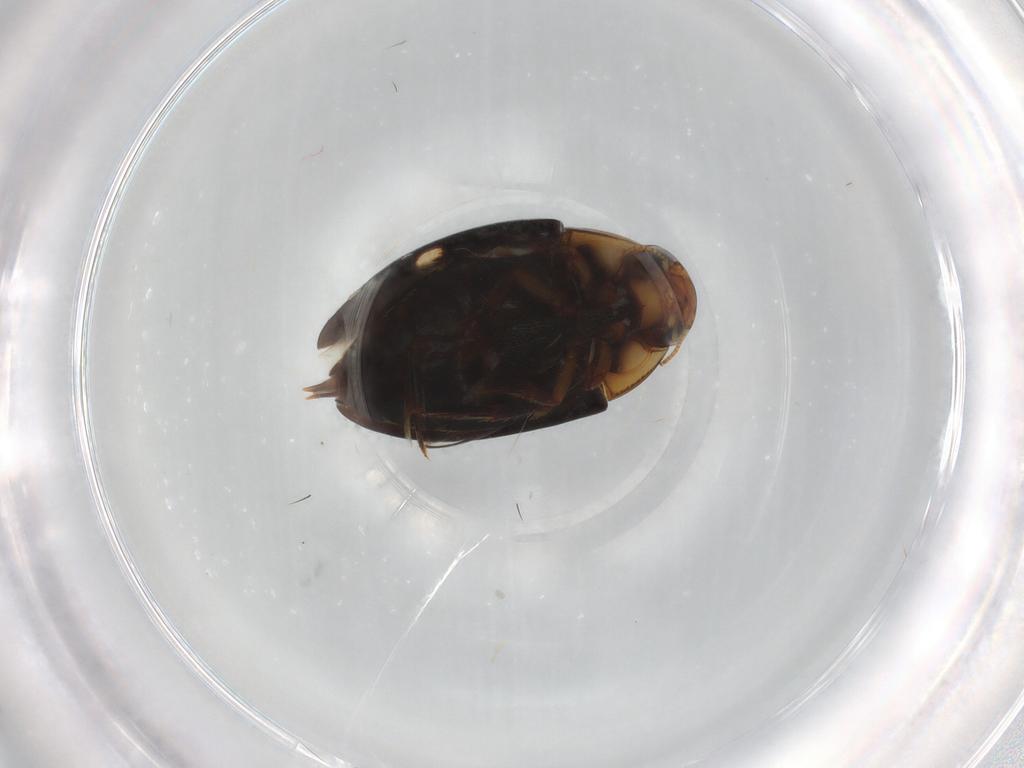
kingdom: Animalia
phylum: Arthropoda
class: Insecta
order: Coleoptera
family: Noteridae
